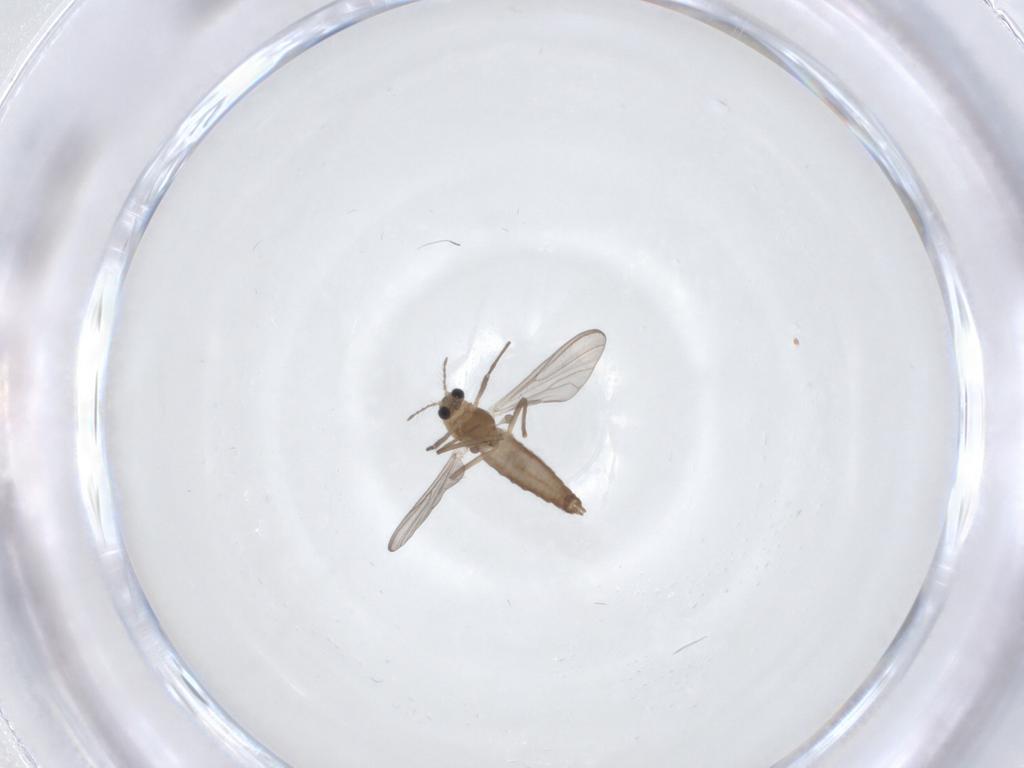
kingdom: Animalia
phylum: Arthropoda
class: Insecta
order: Diptera
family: Chironomidae
